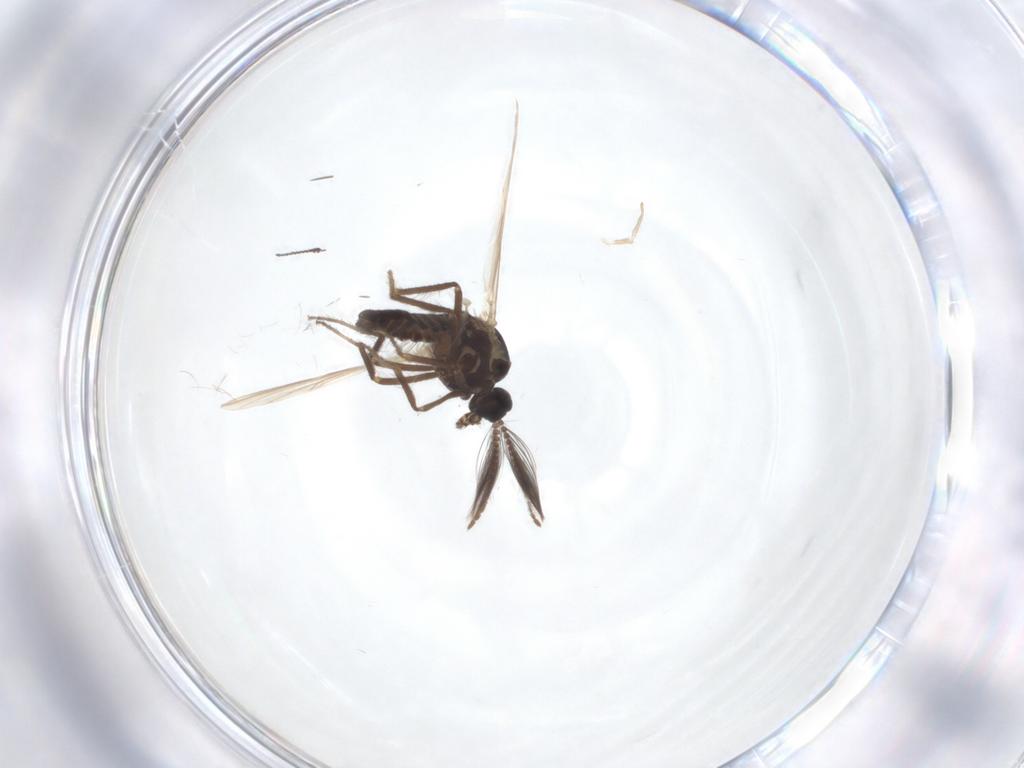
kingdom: Animalia
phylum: Arthropoda
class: Insecta
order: Diptera
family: Ceratopogonidae
